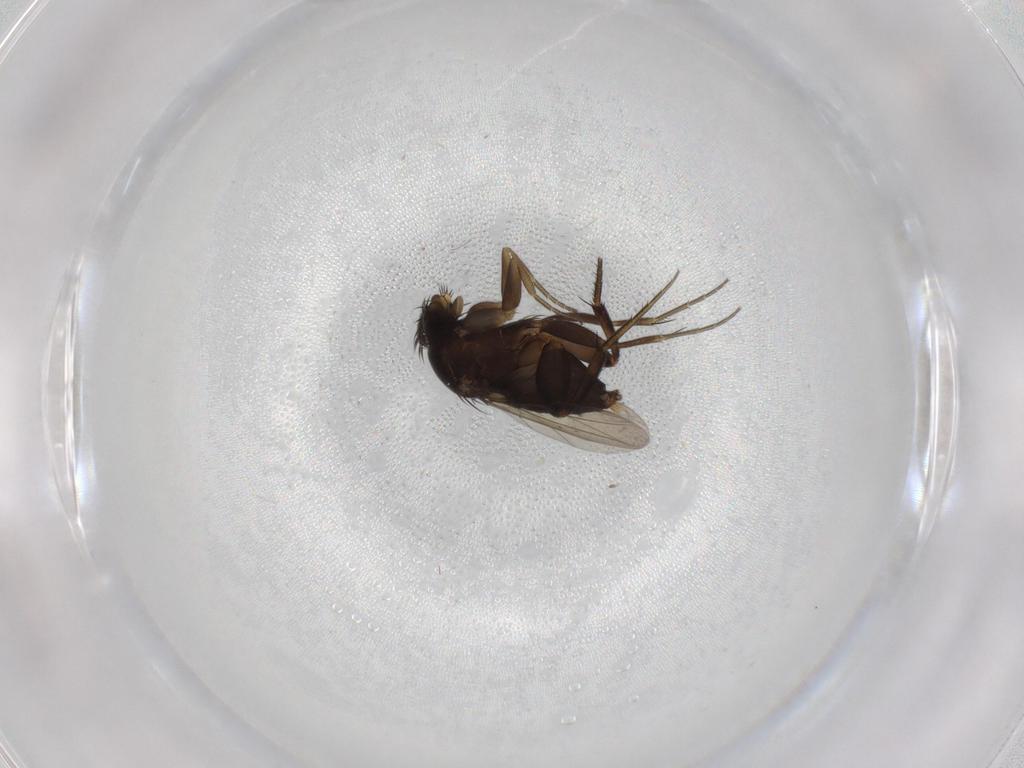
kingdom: Animalia
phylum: Arthropoda
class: Insecta
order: Diptera
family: Phoridae
